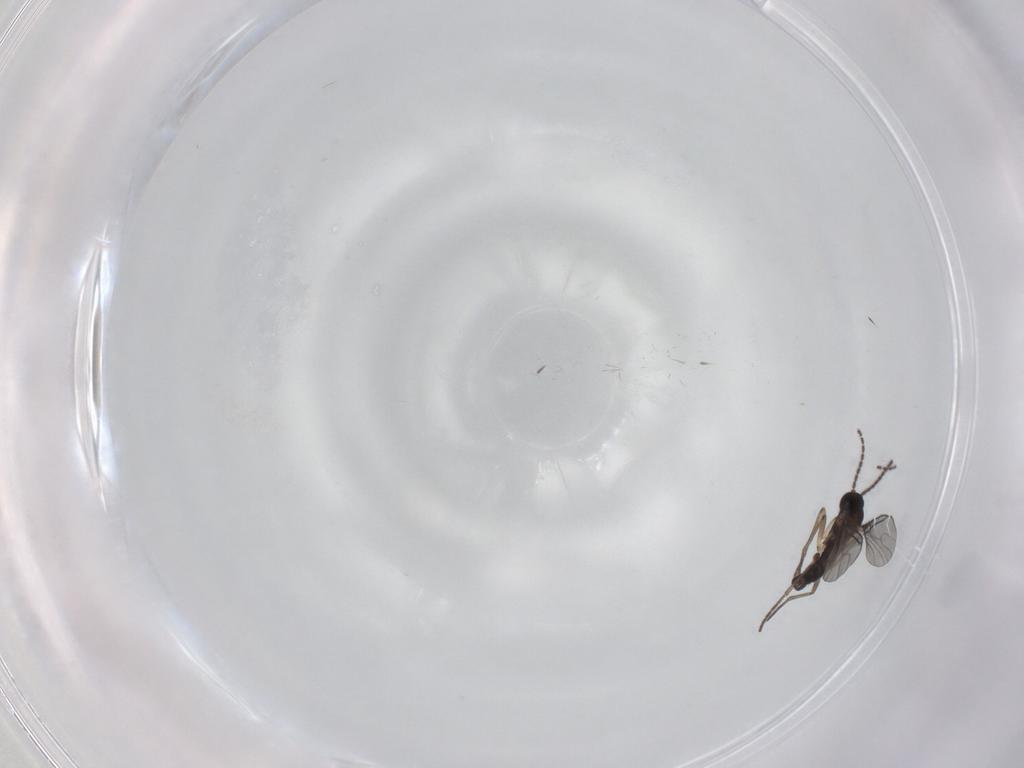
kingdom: Animalia
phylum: Arthropoda
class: Insecta
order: Diptera
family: Sciaridae
